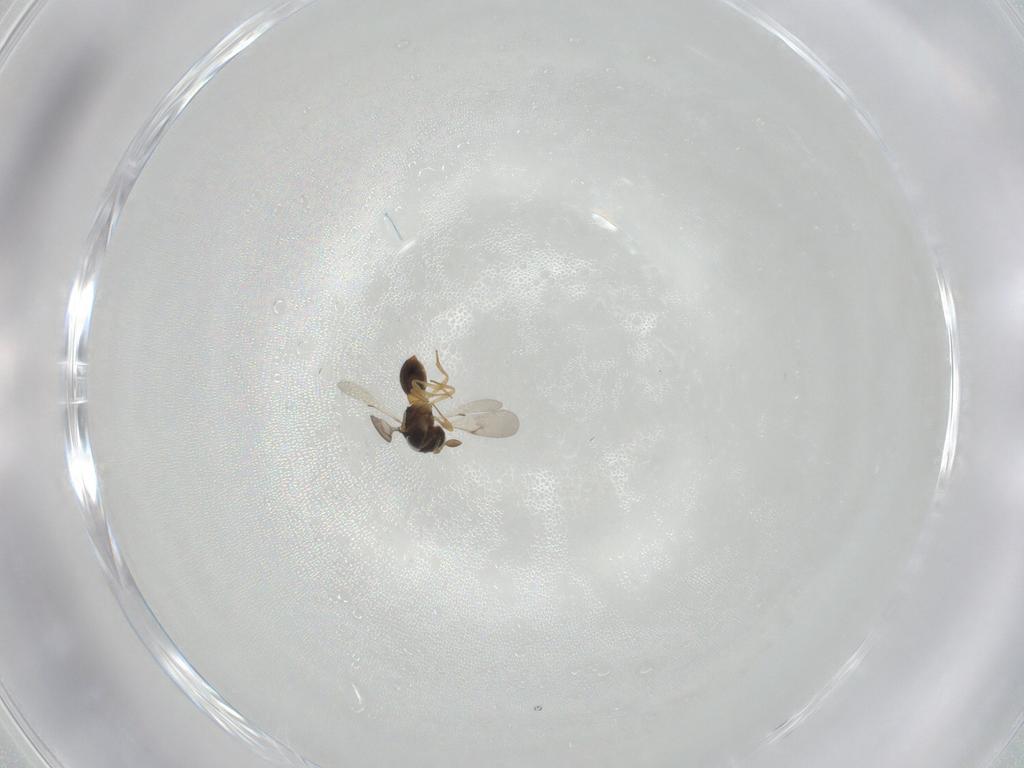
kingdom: Animalia
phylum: Arthropoda
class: Insecta
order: Hymenoptera
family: Scelionidae
